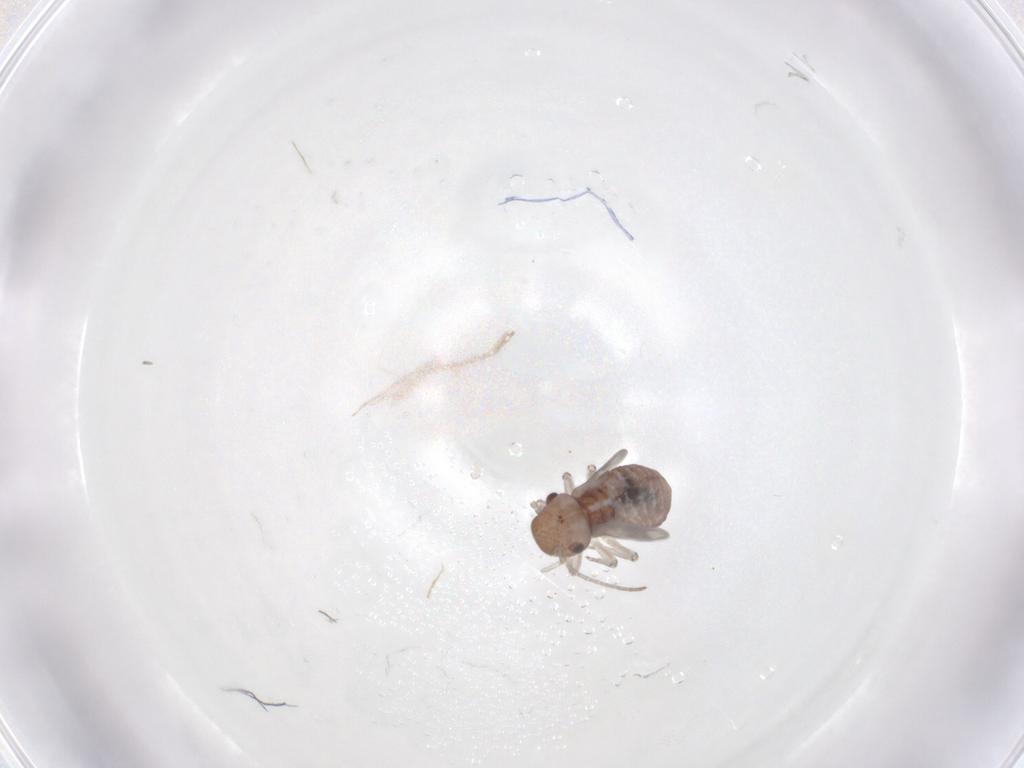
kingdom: Animalia
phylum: Arthropoda
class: Insecta
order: Psocodea
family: Peripsocidae
